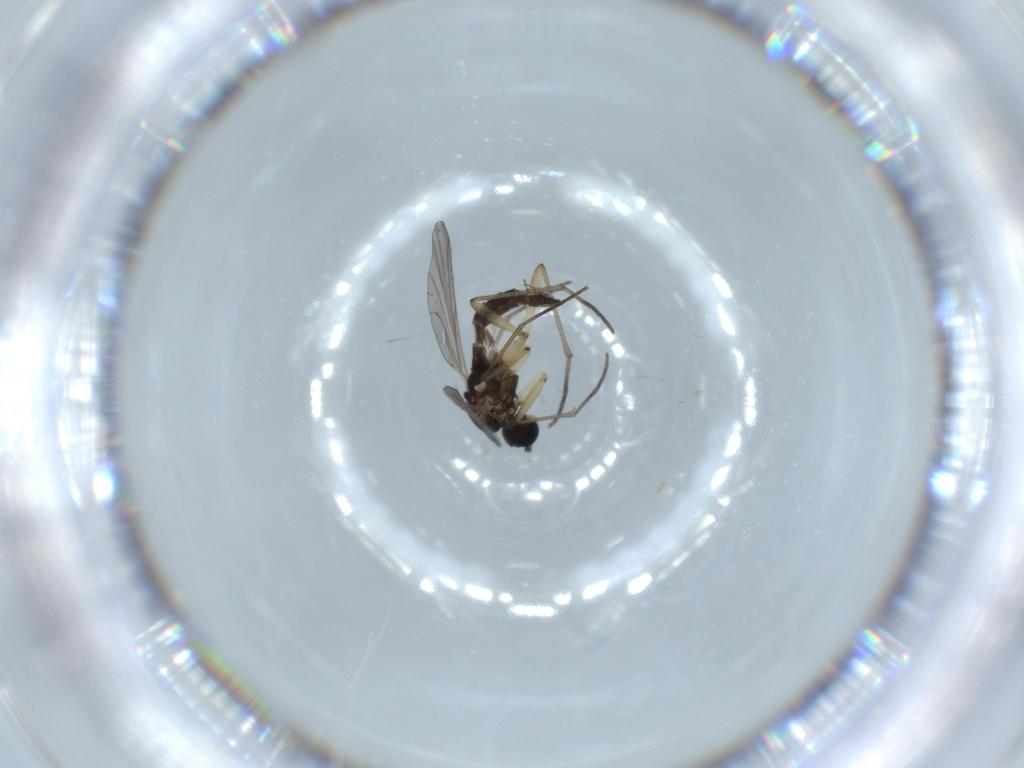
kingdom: Animalia
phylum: Arthropoda
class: Insecta
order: Diptera
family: Sciaridae
